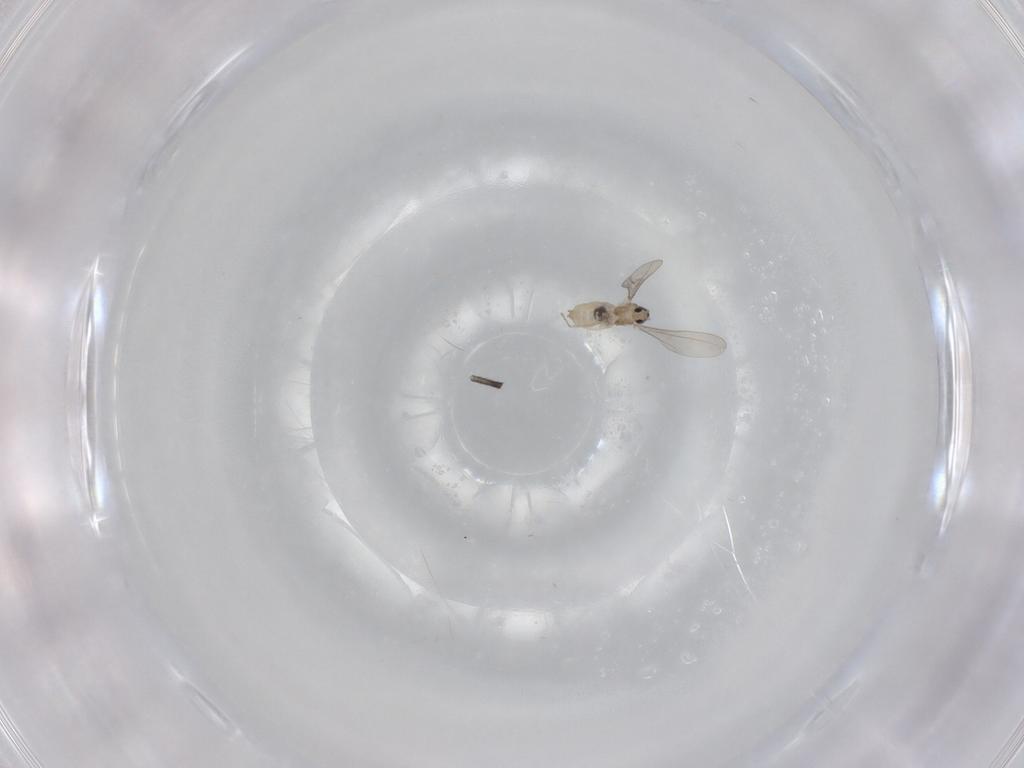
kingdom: Animalia
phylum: Arthropoda
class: Insecta
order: Diptera
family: Cecidomyiidae
